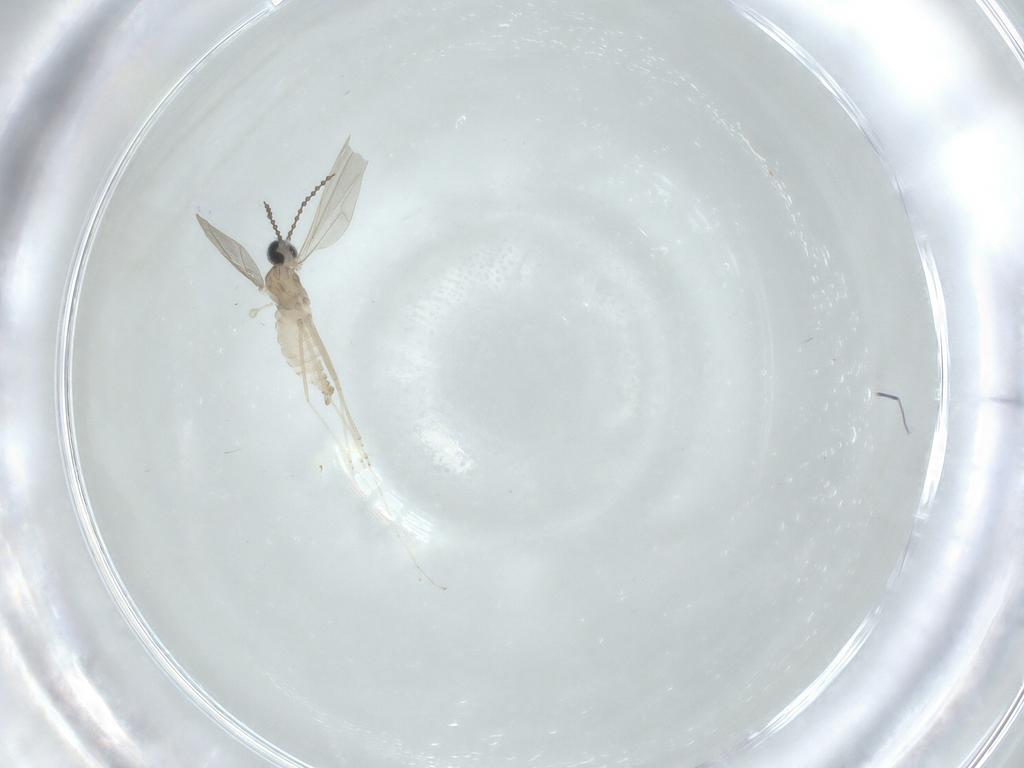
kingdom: Animalia
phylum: Arthropoda
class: Insecta
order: Diptera
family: Cecidomyiidae
